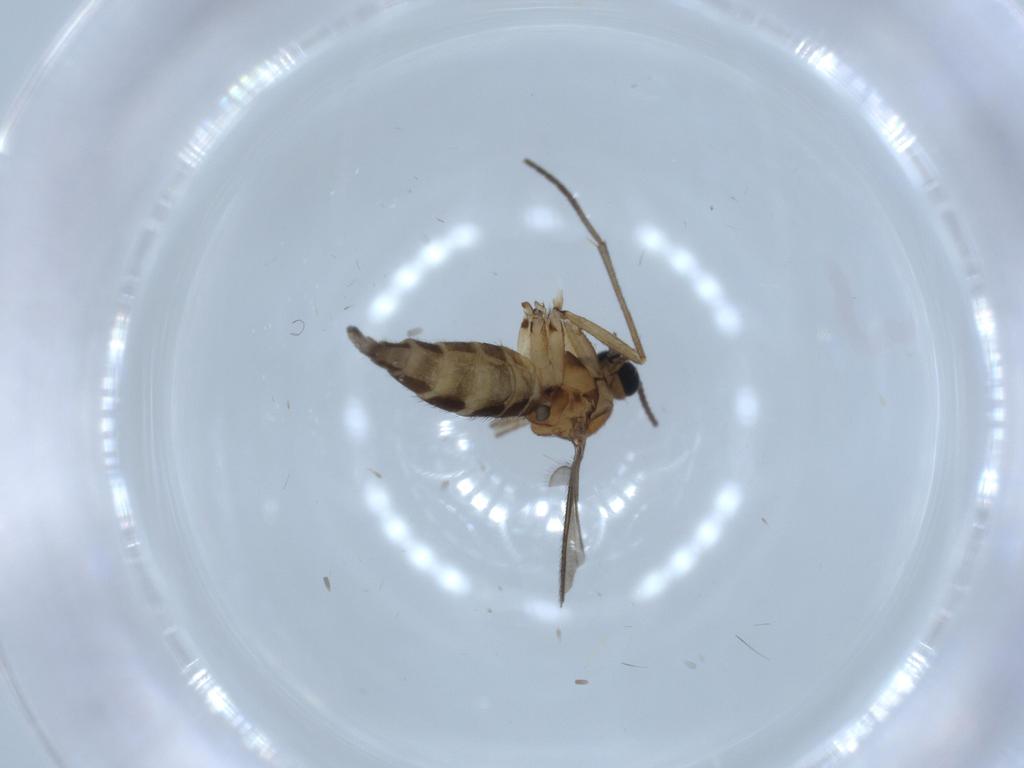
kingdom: Animalia
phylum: Arthropoda
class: Insecta
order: Diptera
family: Sciaridae
